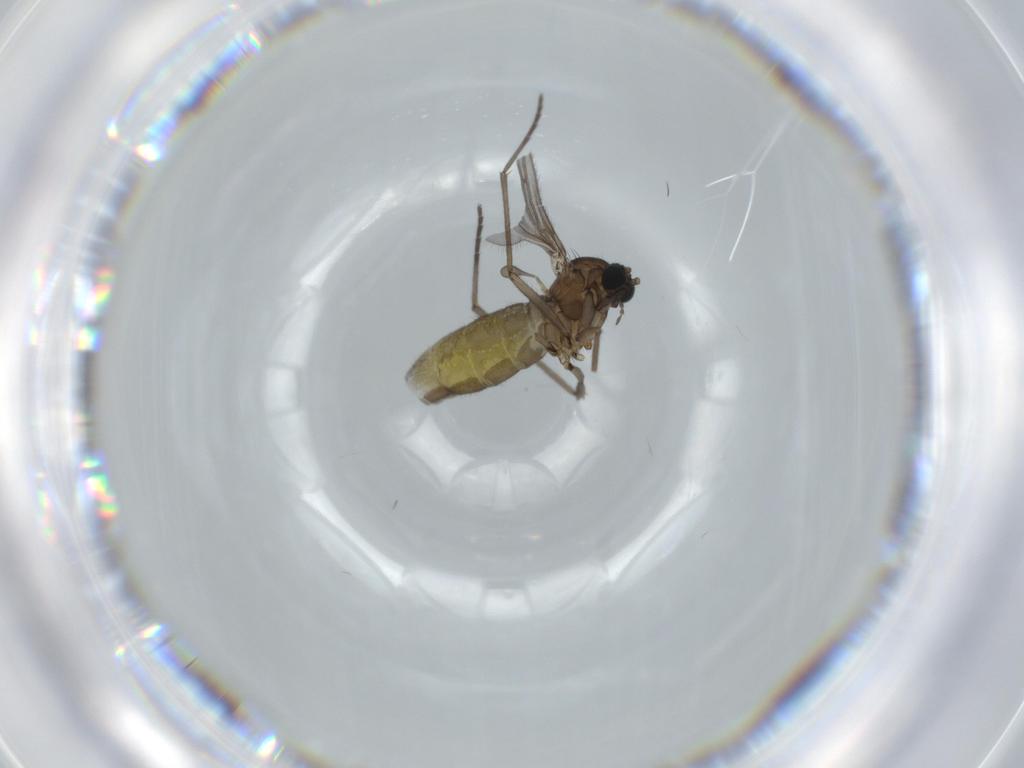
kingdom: Animalia
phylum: Arthropoda
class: Insecta
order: Diptera
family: Sciaridae
